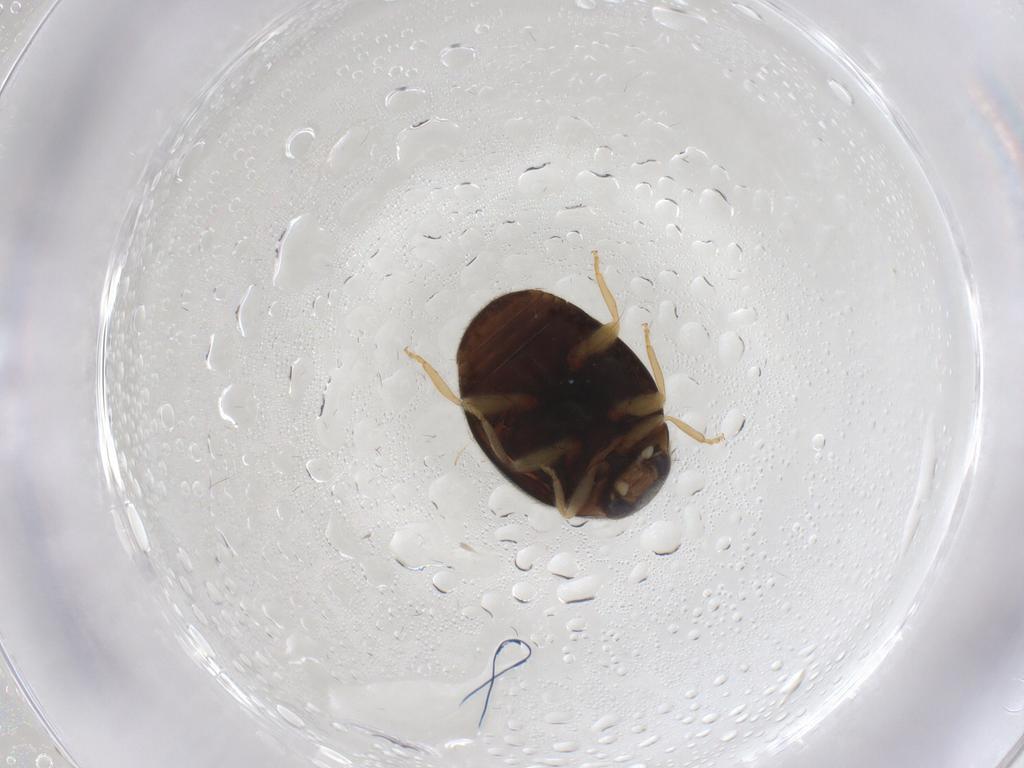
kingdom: Animalia
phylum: Arthropoda
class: Insecta
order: Coleoptera
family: Coccinellidae
